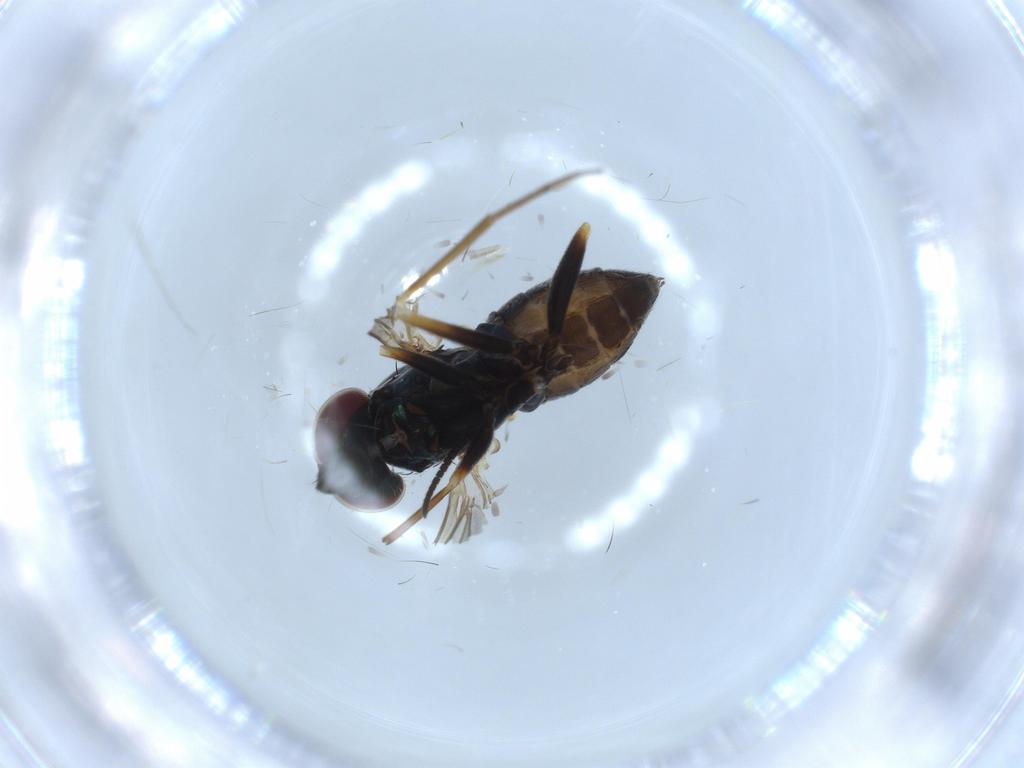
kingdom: Animalia
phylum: Arthropoda
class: Insecta
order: Diptera
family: Dolichopodidae
